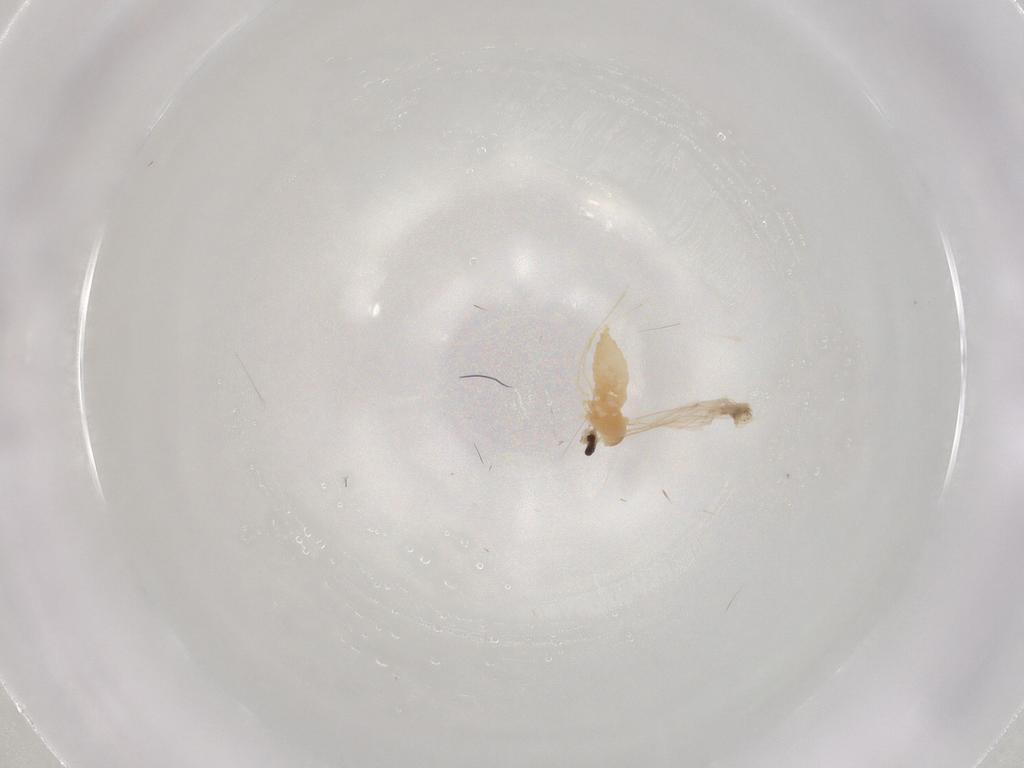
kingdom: Animalia
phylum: Arthropoda
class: Insecta
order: Diptera
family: Cecidomyiidae
